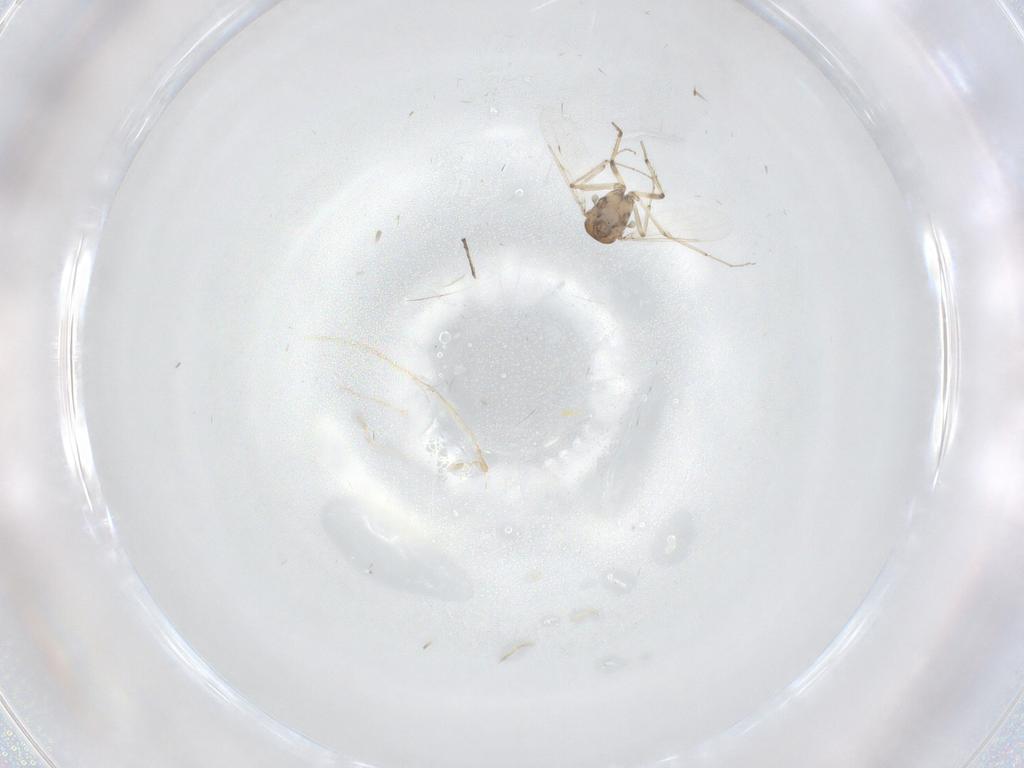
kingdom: Animalia
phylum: Arthropoda
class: Insecta
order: Diptera
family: Ceratopogonidae
